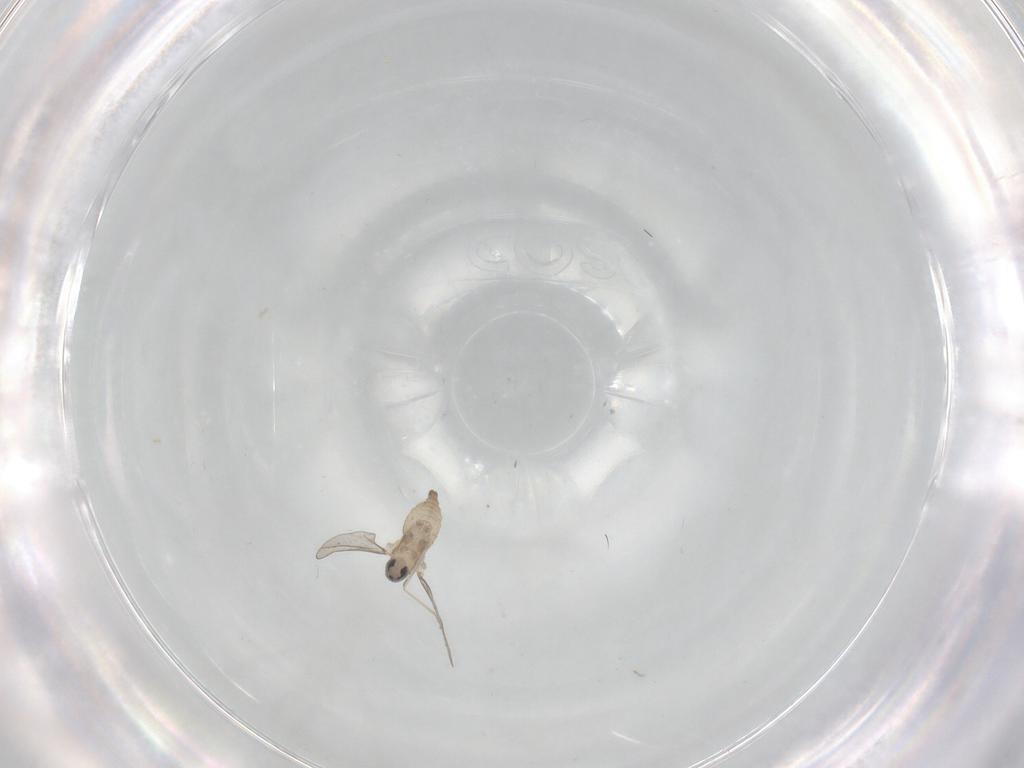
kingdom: Animalia
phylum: Arthropoda
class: Insecta
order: Diptera
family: Cecidomyiidae
